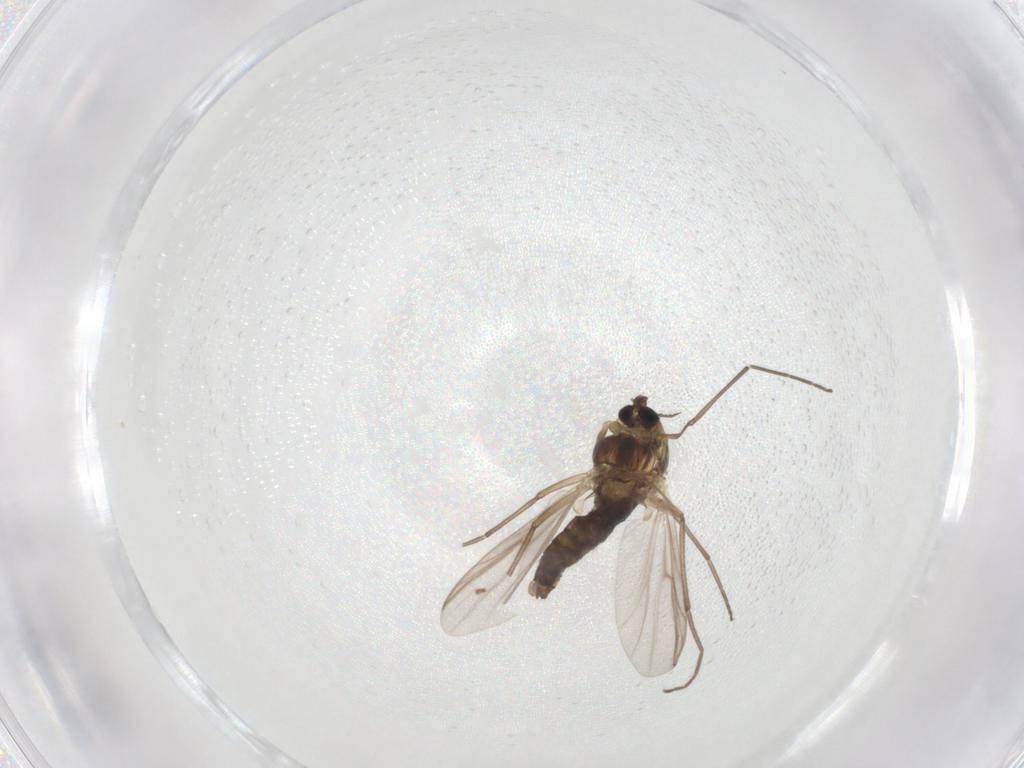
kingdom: Animalia
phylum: Arthropoda
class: Insecta
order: Diptera
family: Chironomidae
